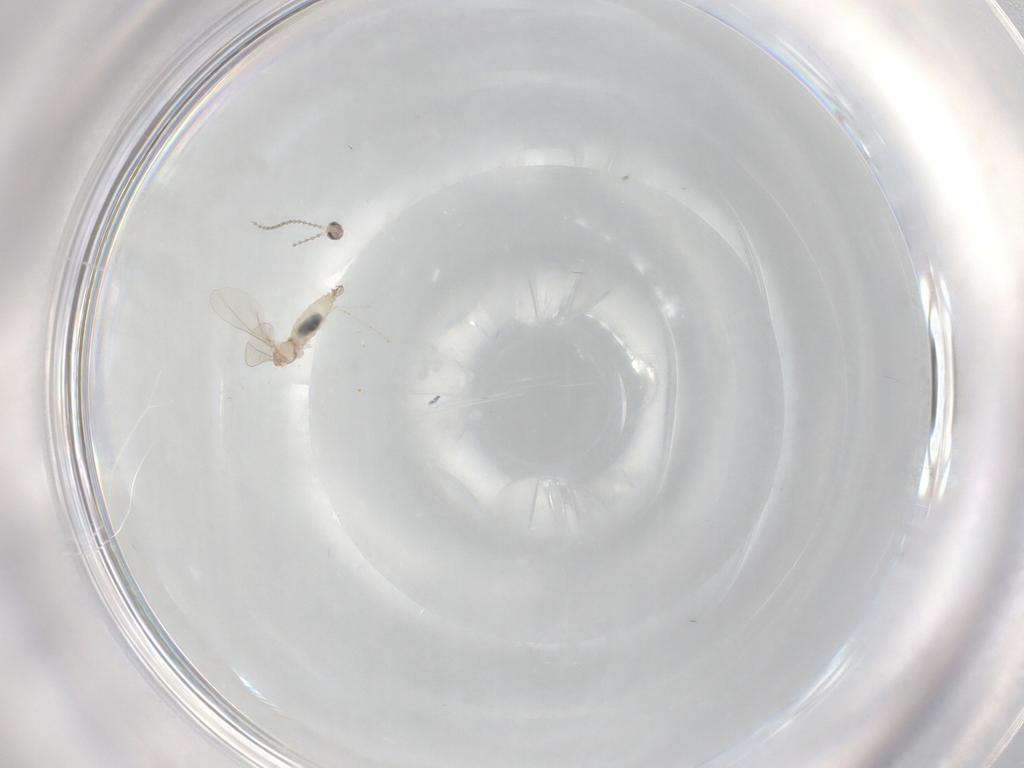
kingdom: Animalia
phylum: Arthropoda
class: Insecta
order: Diptera
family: Cecidomyiidae
